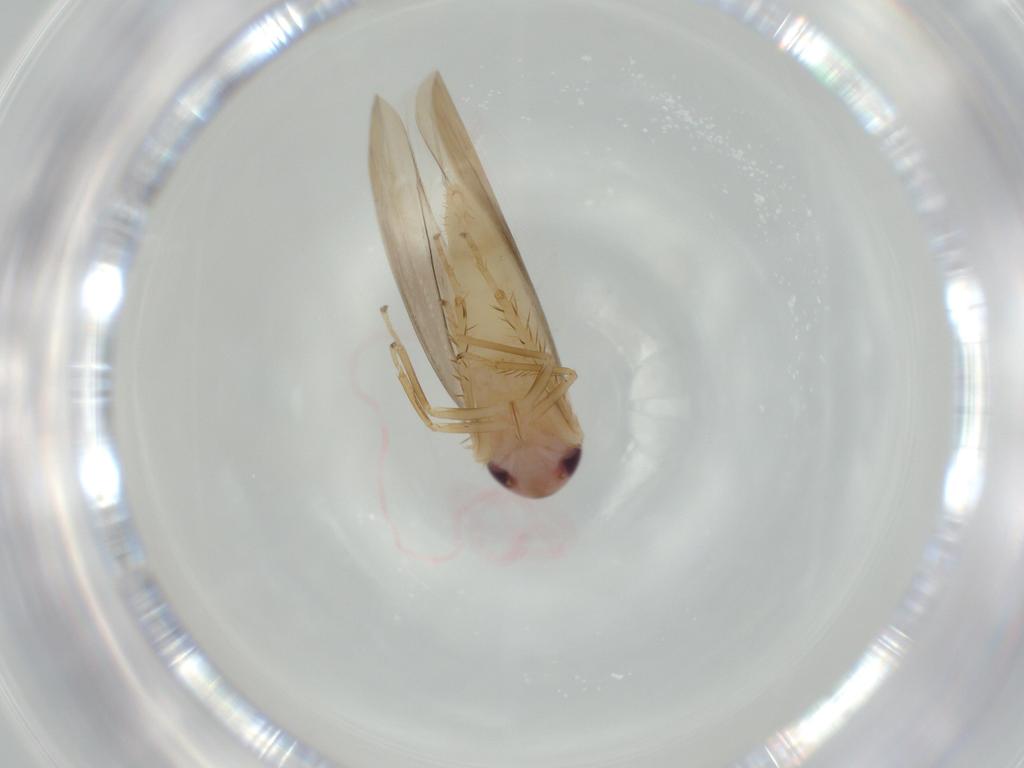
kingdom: Animalia
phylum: Arthropoda
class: Insecta
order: Hemiptera
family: Cicadellidae
